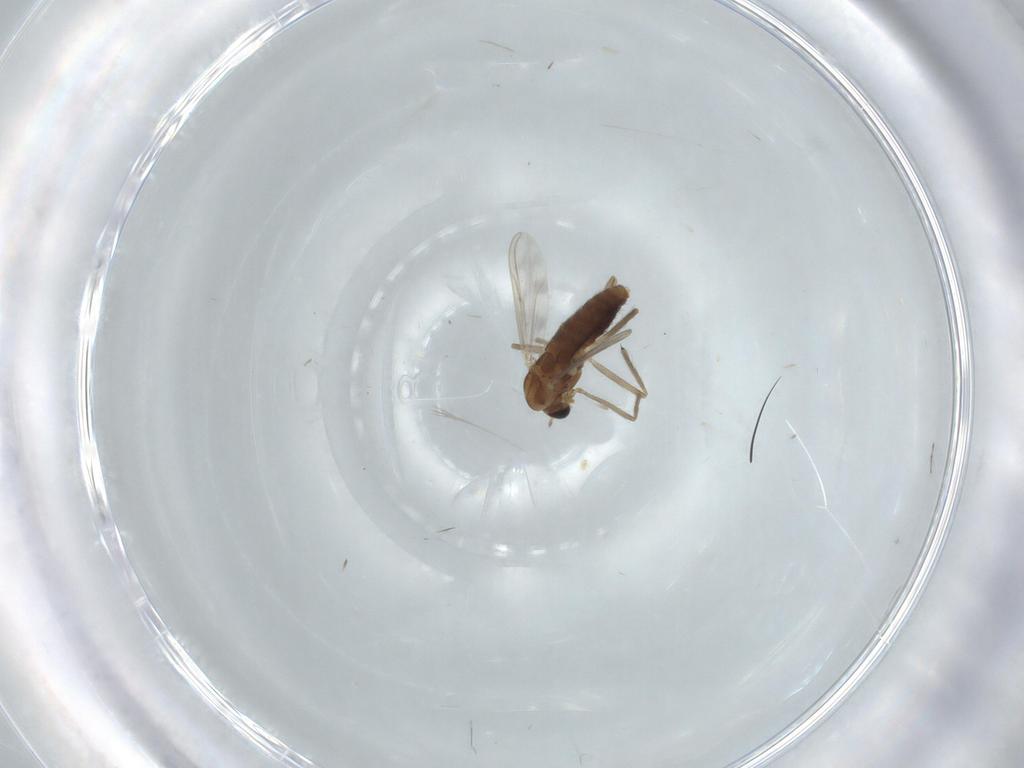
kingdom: Animalia
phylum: Arthropoda
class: Insecta
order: Diptera
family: Chironomidae
